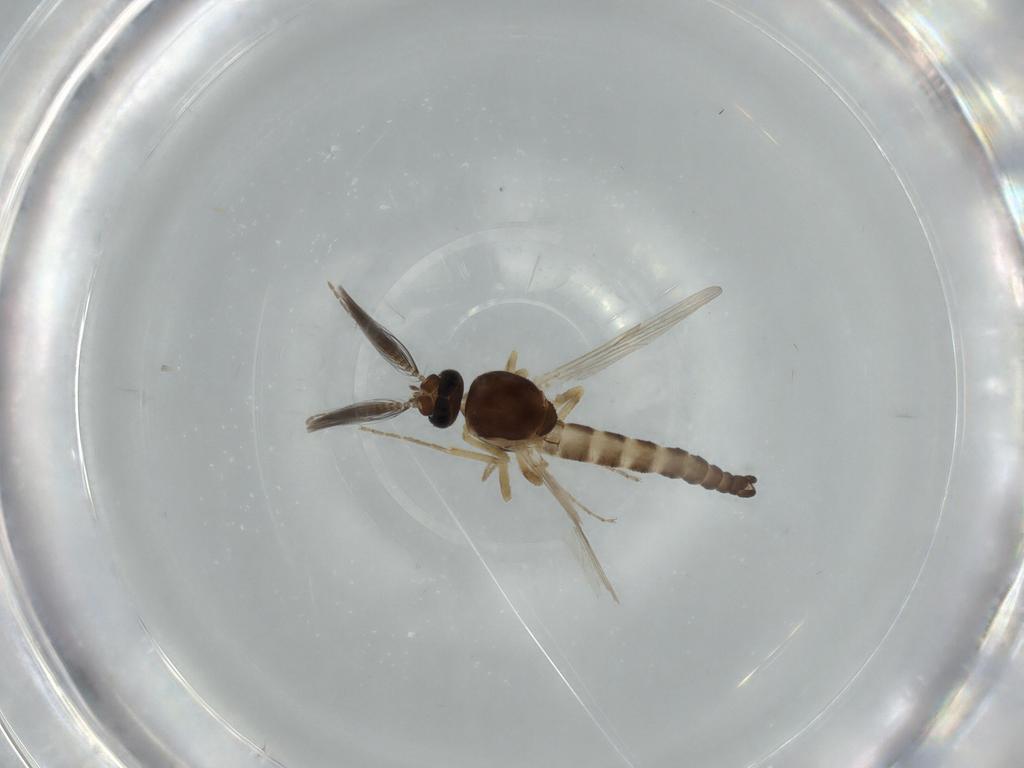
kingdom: Animalia
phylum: Arthropoda
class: Insecta
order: Diptera
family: Ceratopogonidae
